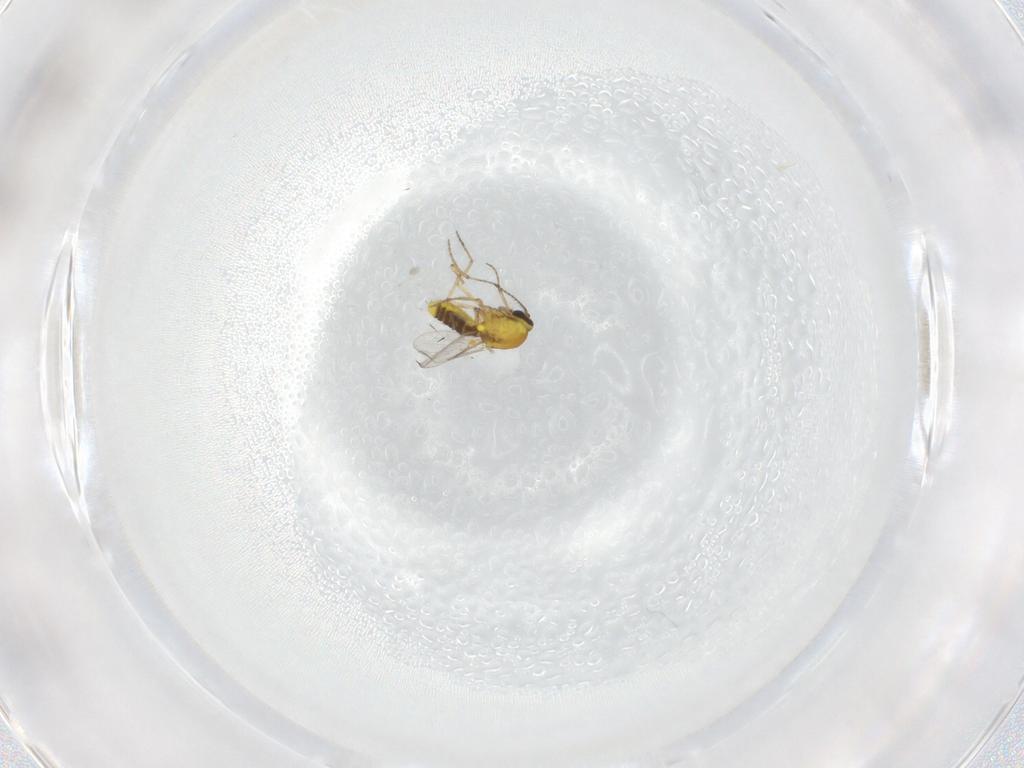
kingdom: Animalia
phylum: Arthropoda
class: Insecta
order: Diptera
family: Ceratopogonidae
